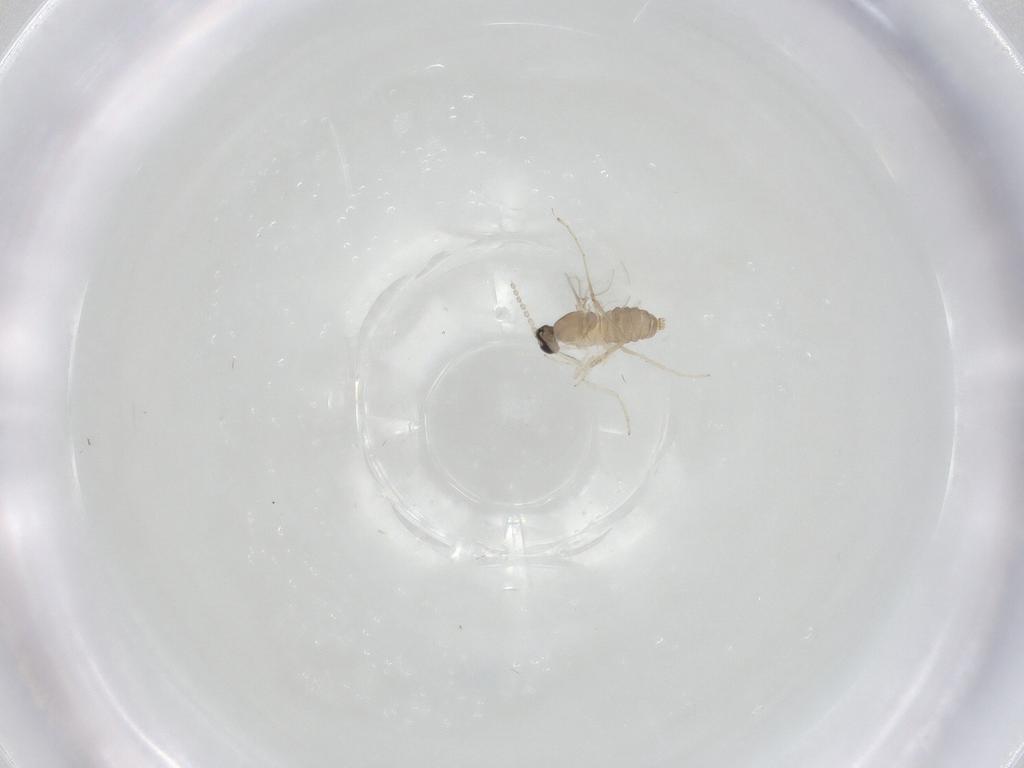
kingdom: Animalia
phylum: Arthropoda
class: Insecta
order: Diptera
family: Cecidomyiidae
